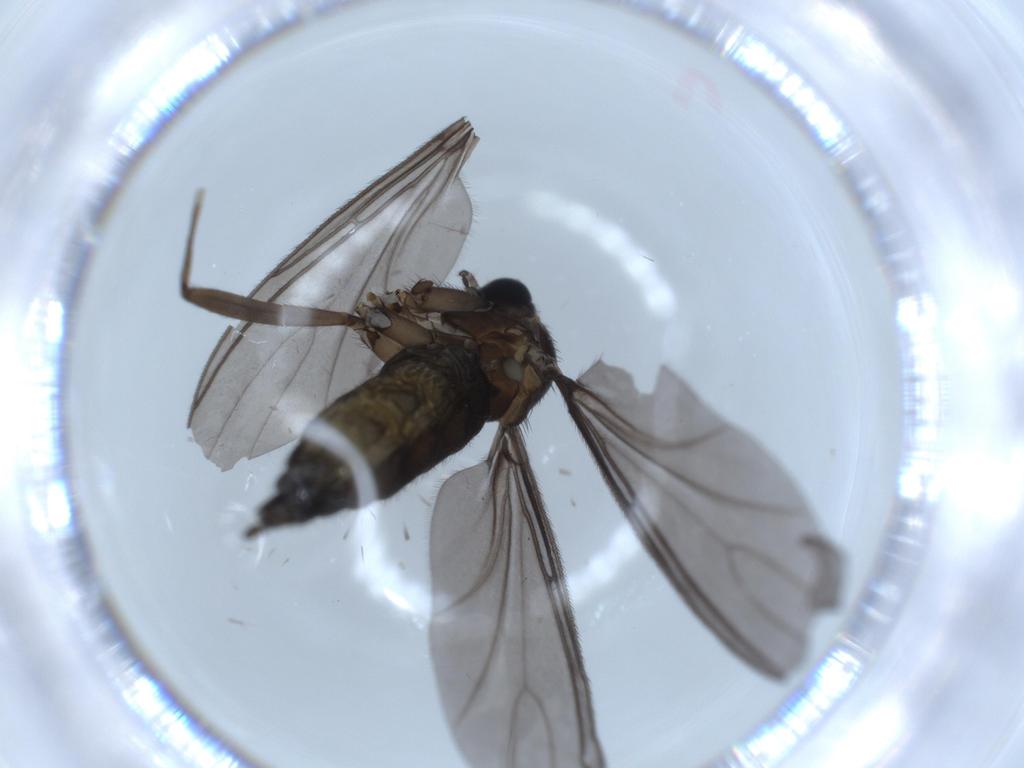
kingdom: Animalia
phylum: Arthropoda
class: Insecta
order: Diptera
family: Sciaridae
